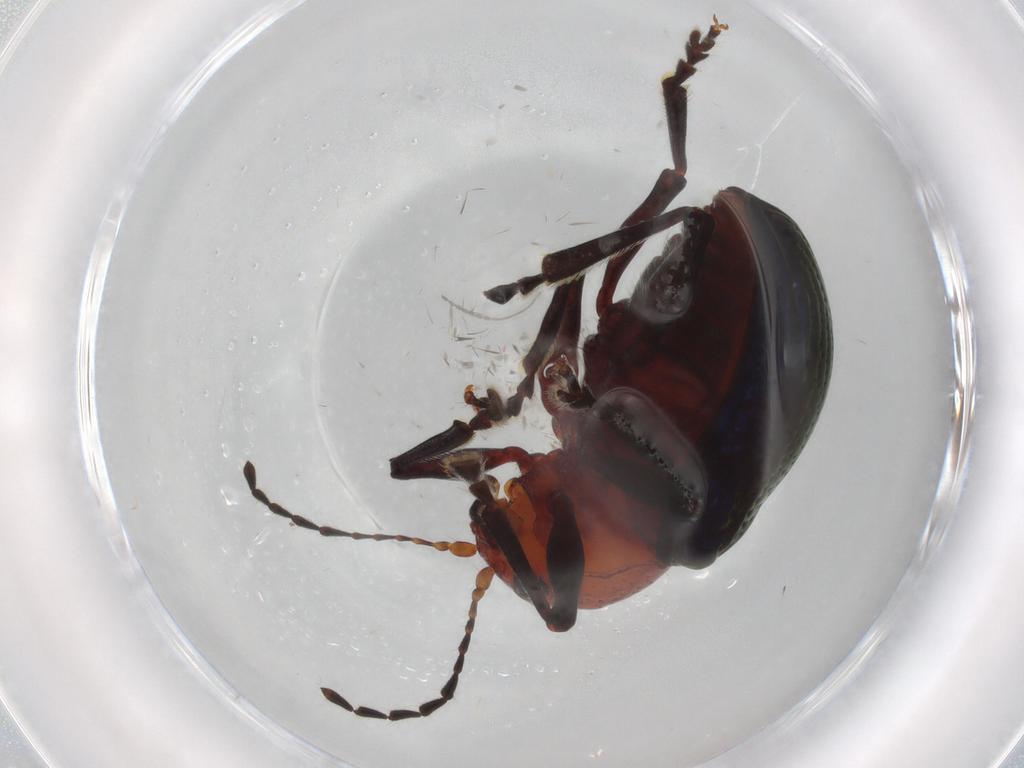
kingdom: Animalia
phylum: Arthropoda
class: Insecta
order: Coleoptera
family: Chrysomelidae
